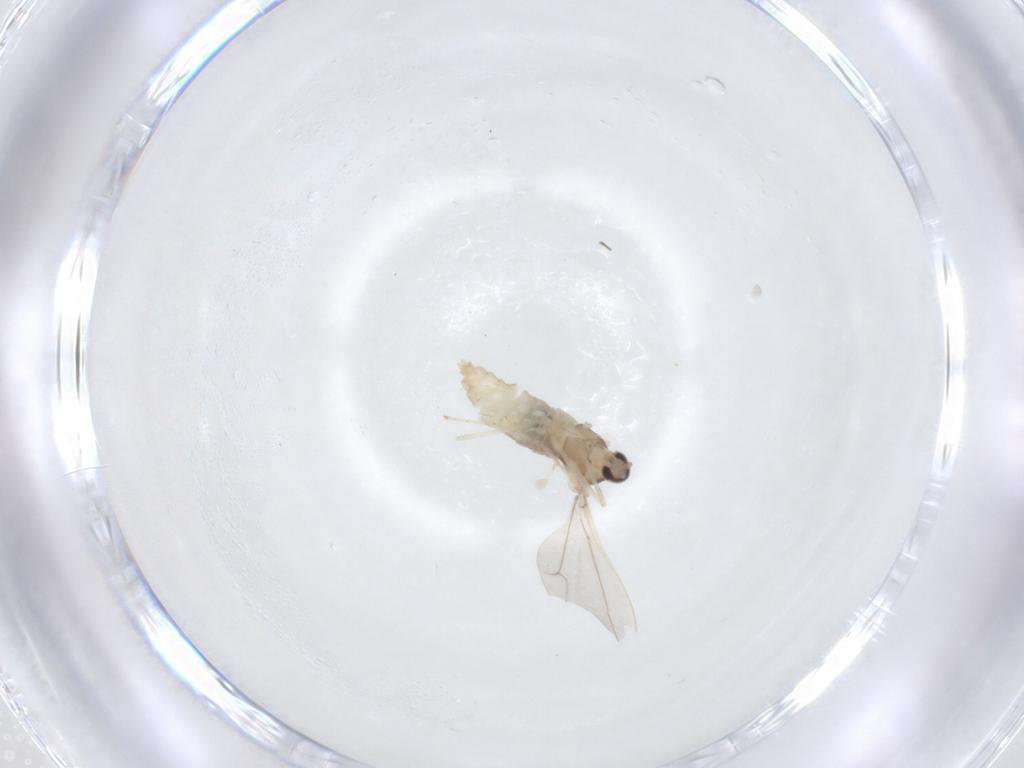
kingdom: Animalia
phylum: Arthropoda
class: Insecta
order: Diptera
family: Cecidomyiidae
